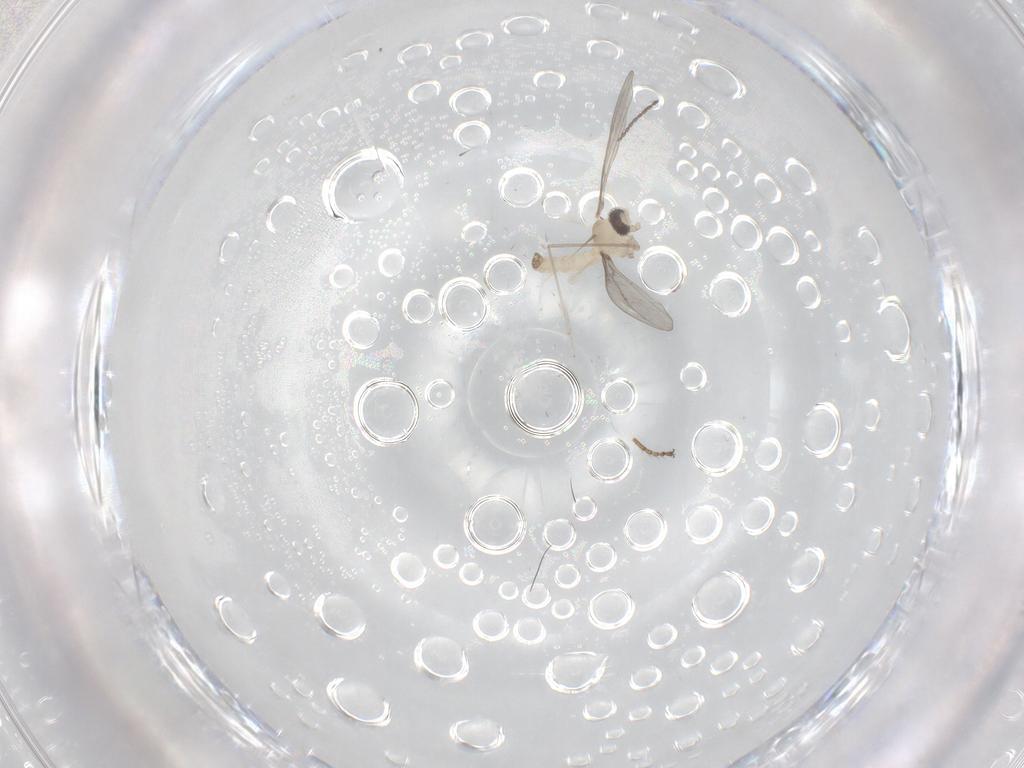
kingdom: Animalia
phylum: Arthropoda
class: Insecta
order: Diptera
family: Cecidomyiidae
